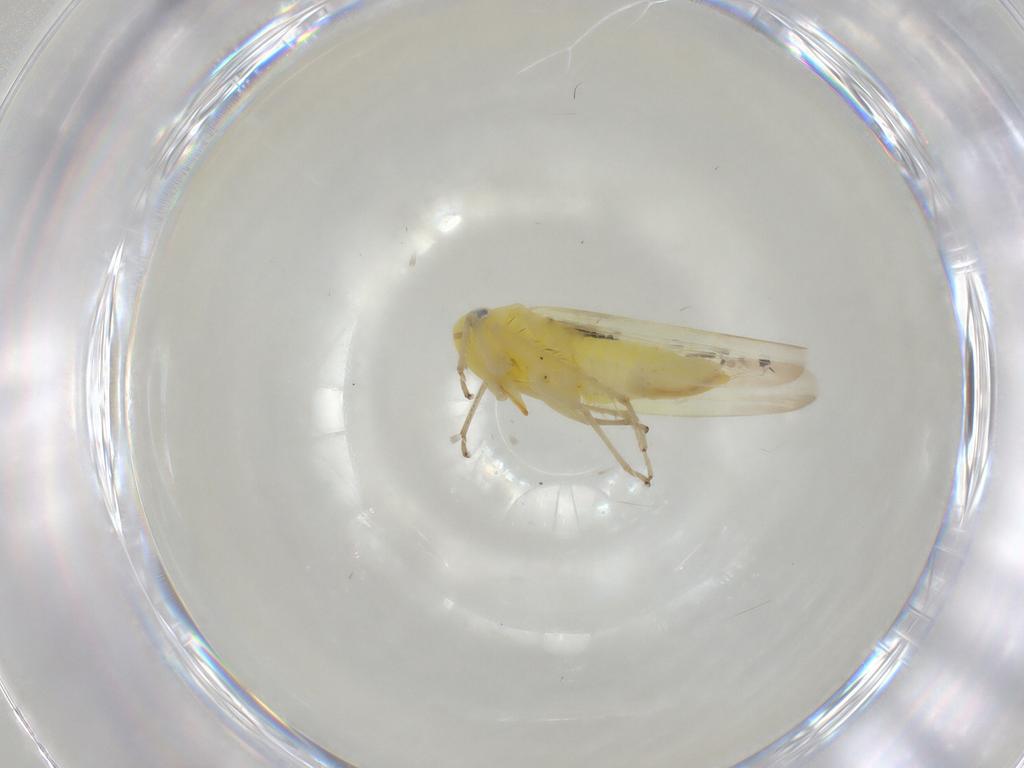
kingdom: Animalia
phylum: Arthropoda
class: Insecta
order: Hemiptera
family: Cicadellidae
